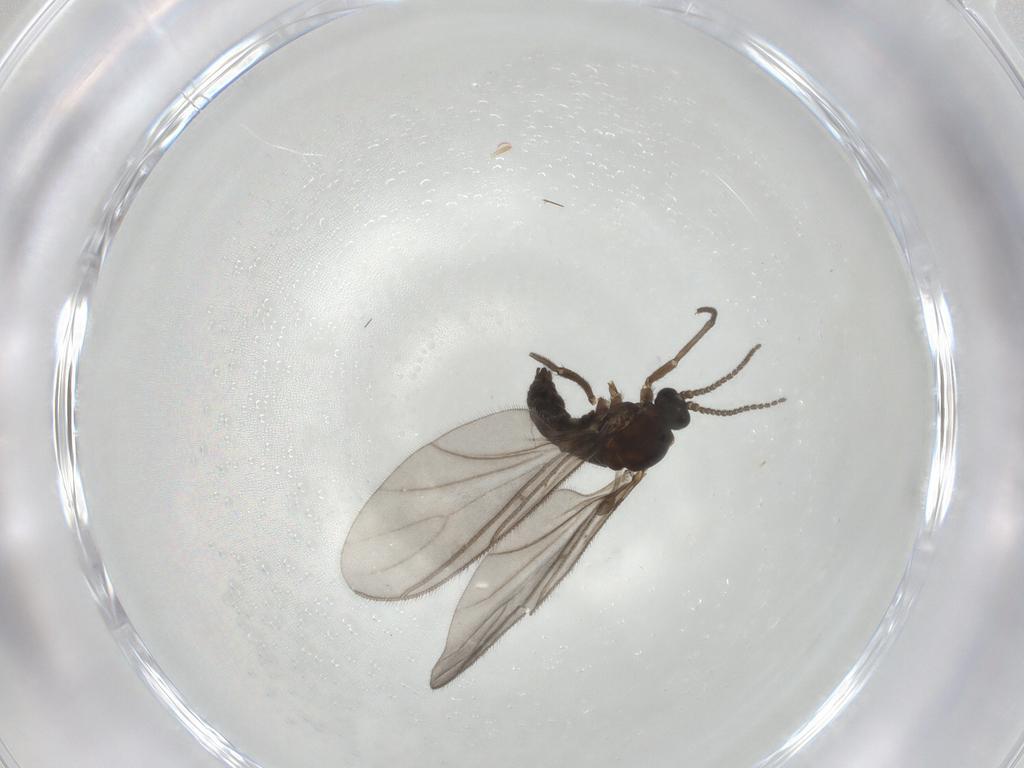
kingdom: Animalia
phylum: Arthropoda
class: Insecta
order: Diptera
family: Sciaridae
